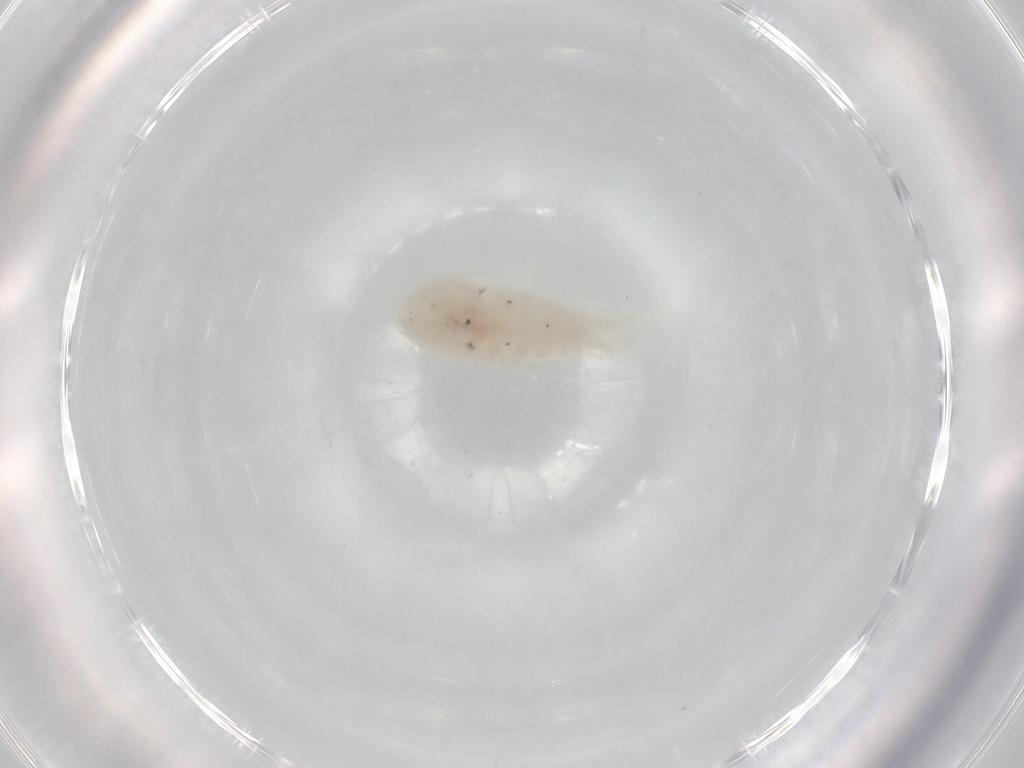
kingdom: Animalia
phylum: Arthropoda
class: Copepoda
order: Calanoida
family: Diaptomidae
